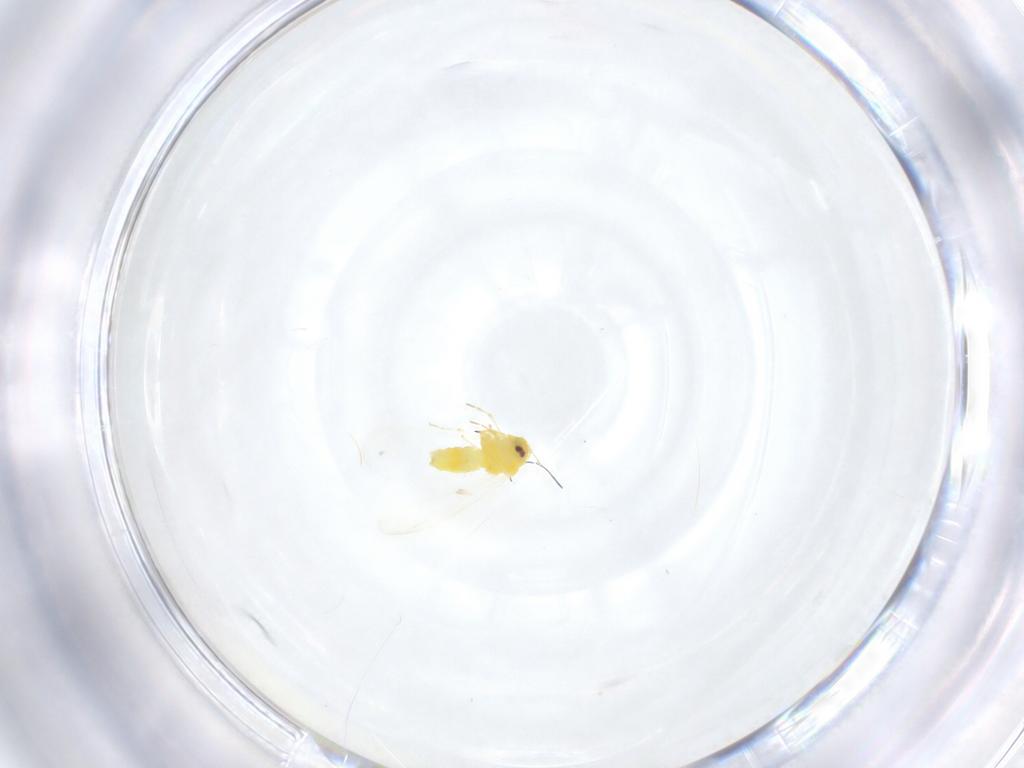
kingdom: Animalia
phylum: Arthropoda
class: Insecta
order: Hemiptera
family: Aleyrodidae
